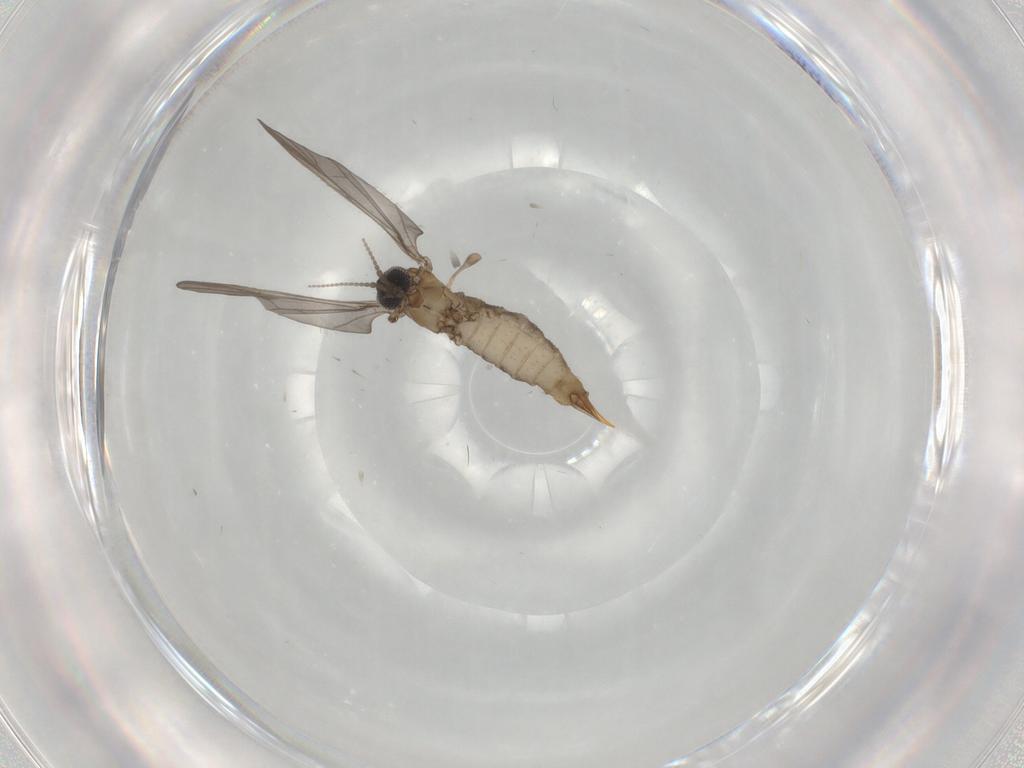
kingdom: Animalia
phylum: Arthropoda
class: Insecta
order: Diptera
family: Limoniidae
